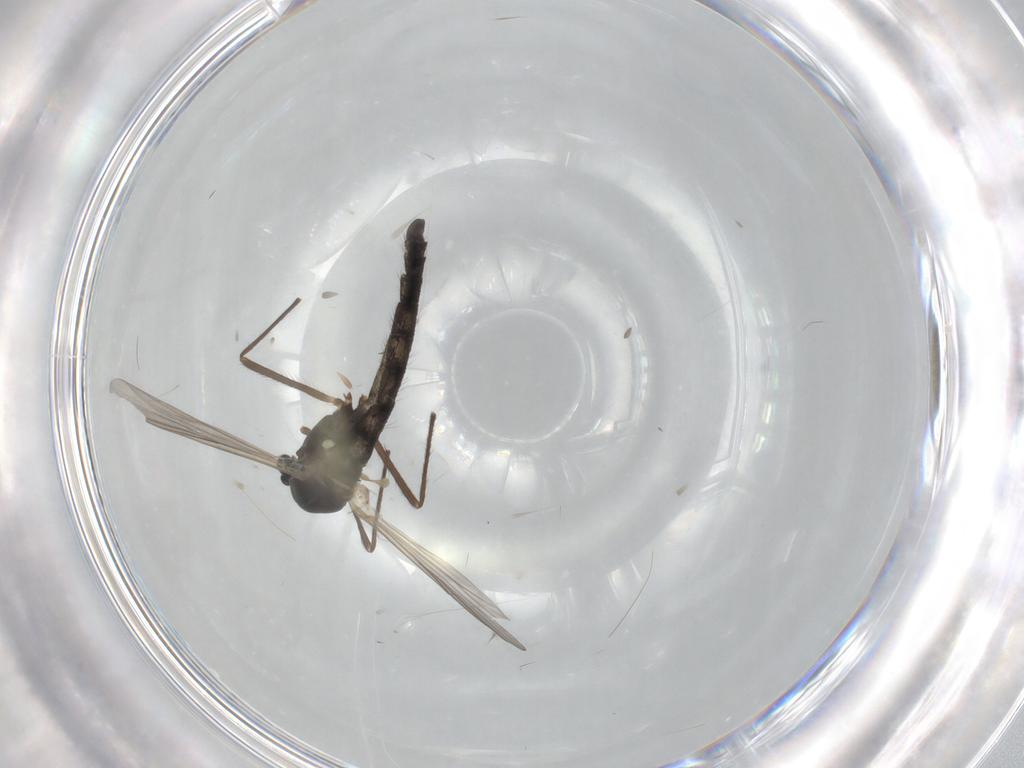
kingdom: Animalia
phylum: Arthropoda
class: Insecta
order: Diptera
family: Chironomidae
